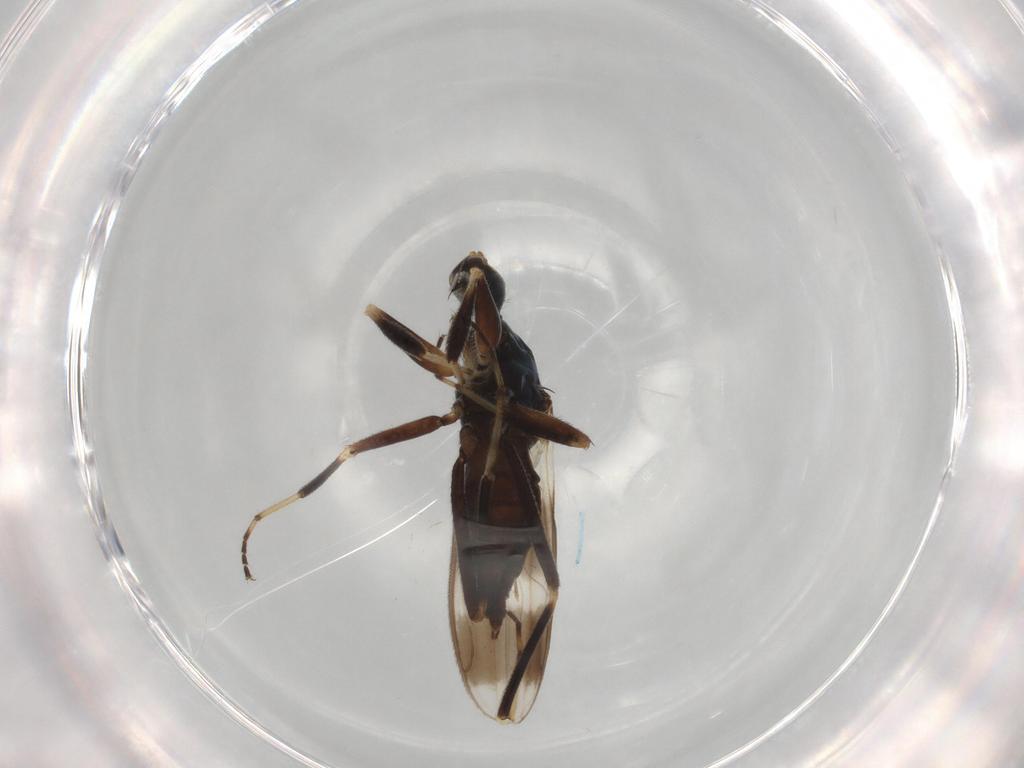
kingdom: Animalia
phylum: Arthropoda
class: Insecta
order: Diptera
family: Hybotidae
